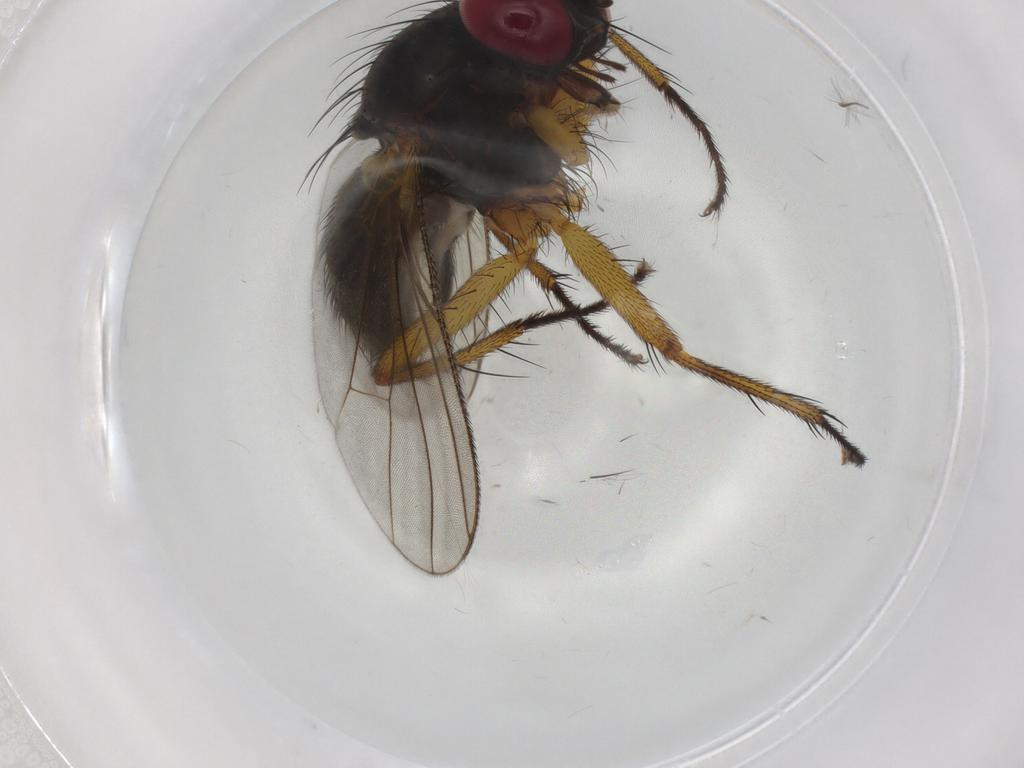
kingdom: Animalia
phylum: Arthropoda
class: Insecta
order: Diptera
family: Muscidae
